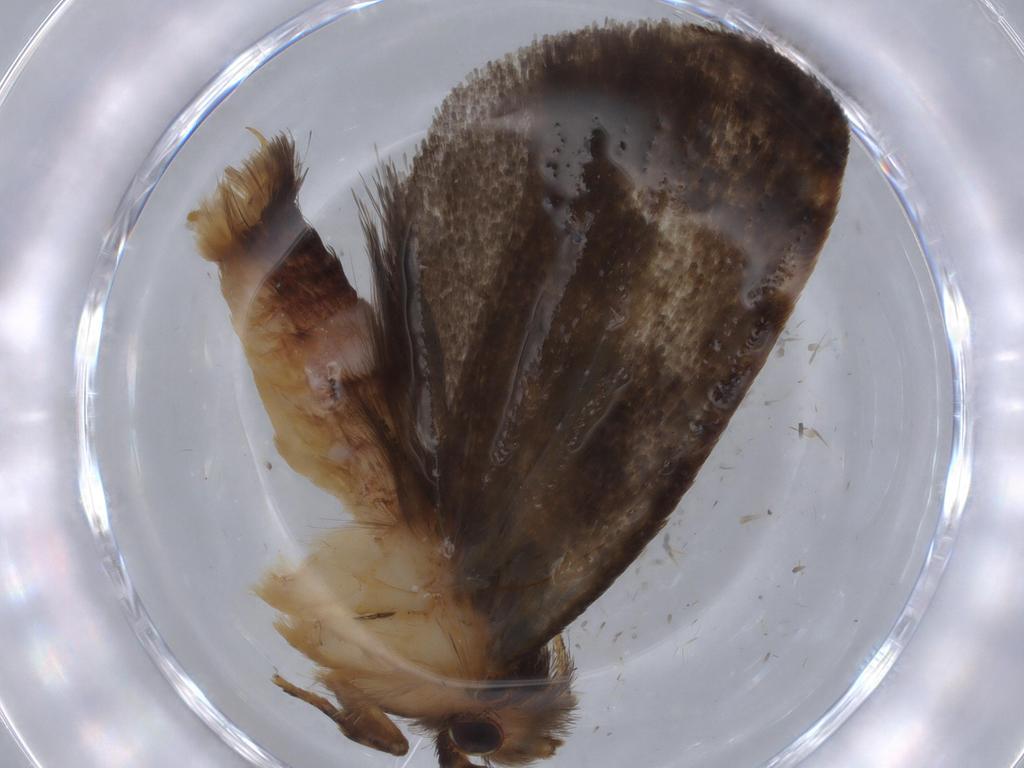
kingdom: Animalia
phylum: Arthropoda
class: Insecta
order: Lepidoptera
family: Tineidae
